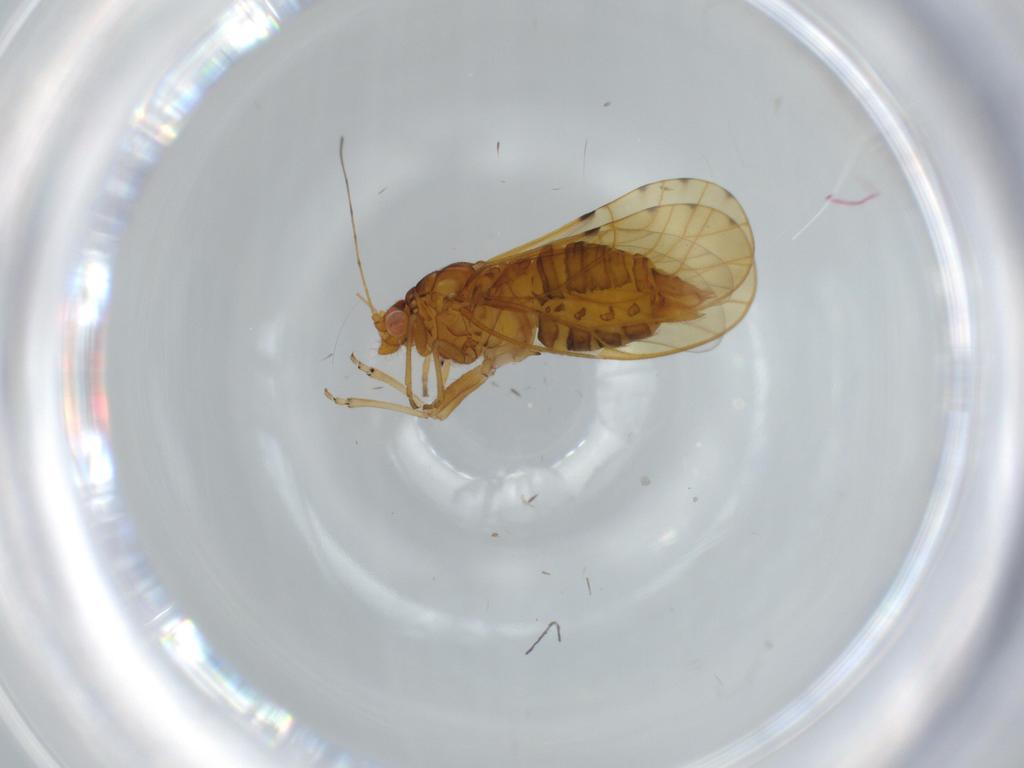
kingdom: Animalia
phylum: Arthropoda
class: Insecta
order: Hemiptera
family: Psylloidea_incertae_sedis
